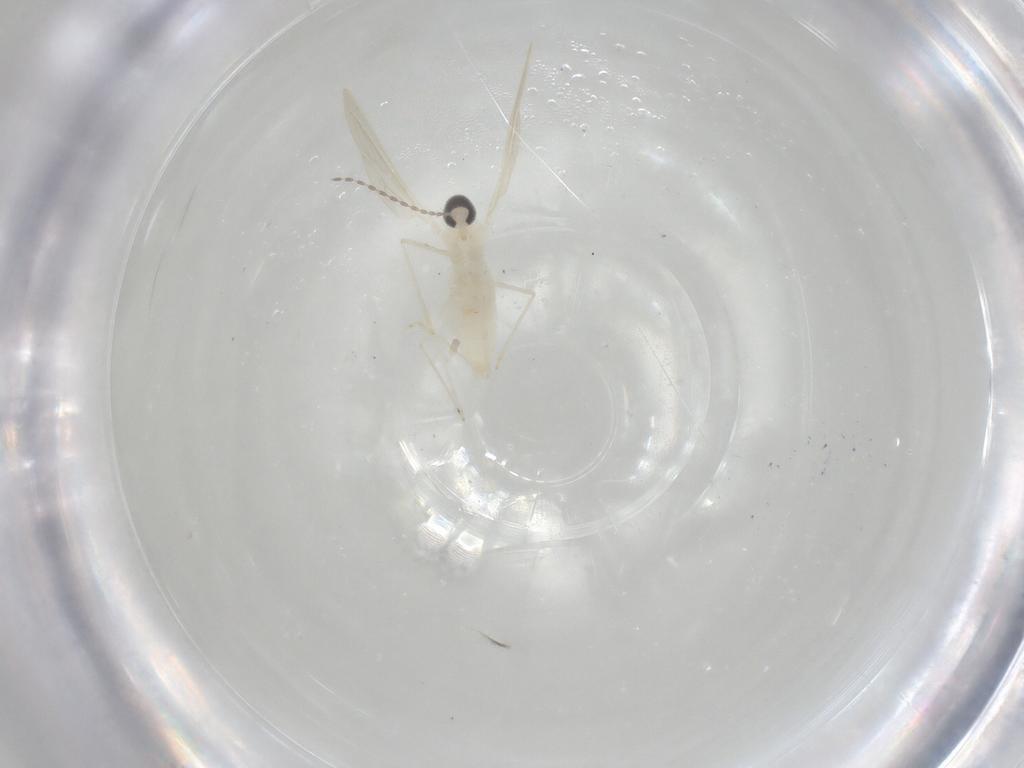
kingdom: Animalia
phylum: Arthropoda
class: Insecta
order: Diptera
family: Cecidomyiidae
